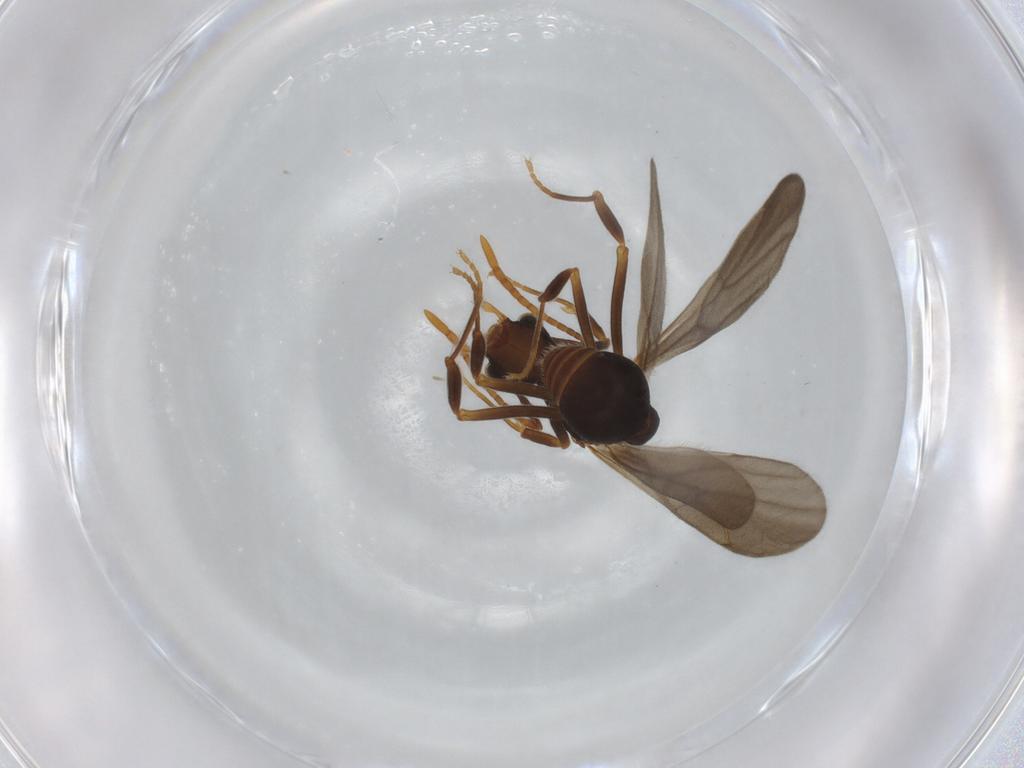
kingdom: Animalia
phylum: Arthropoda
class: Insecta
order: Hymenoptera
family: Formicidae
